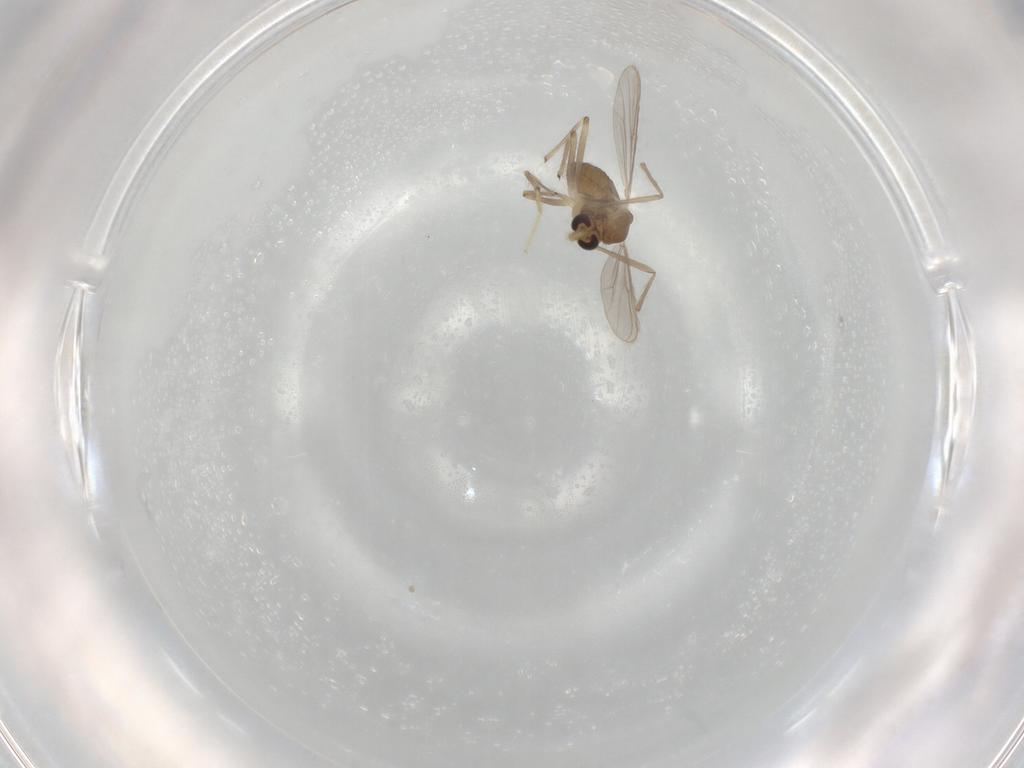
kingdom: Animalia
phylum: Arthropoda
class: Insecta
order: Diptera
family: Chironomidae
